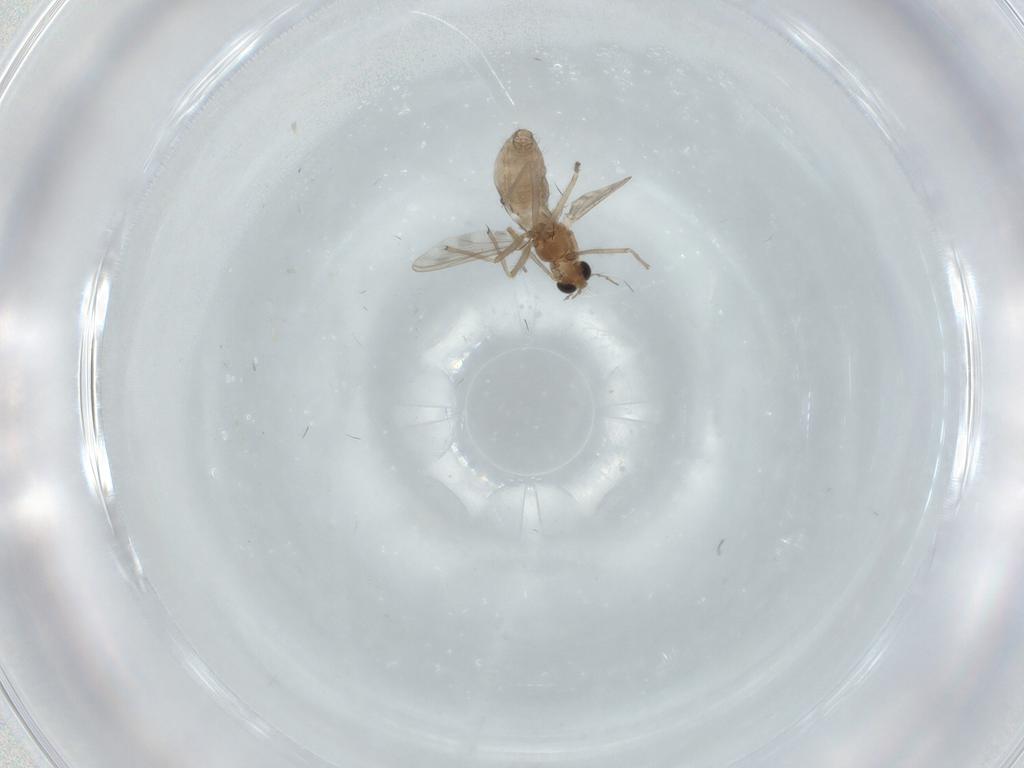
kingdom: Animalia
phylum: Arthropoda
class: Insecta
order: Diptera
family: Chironomidae
